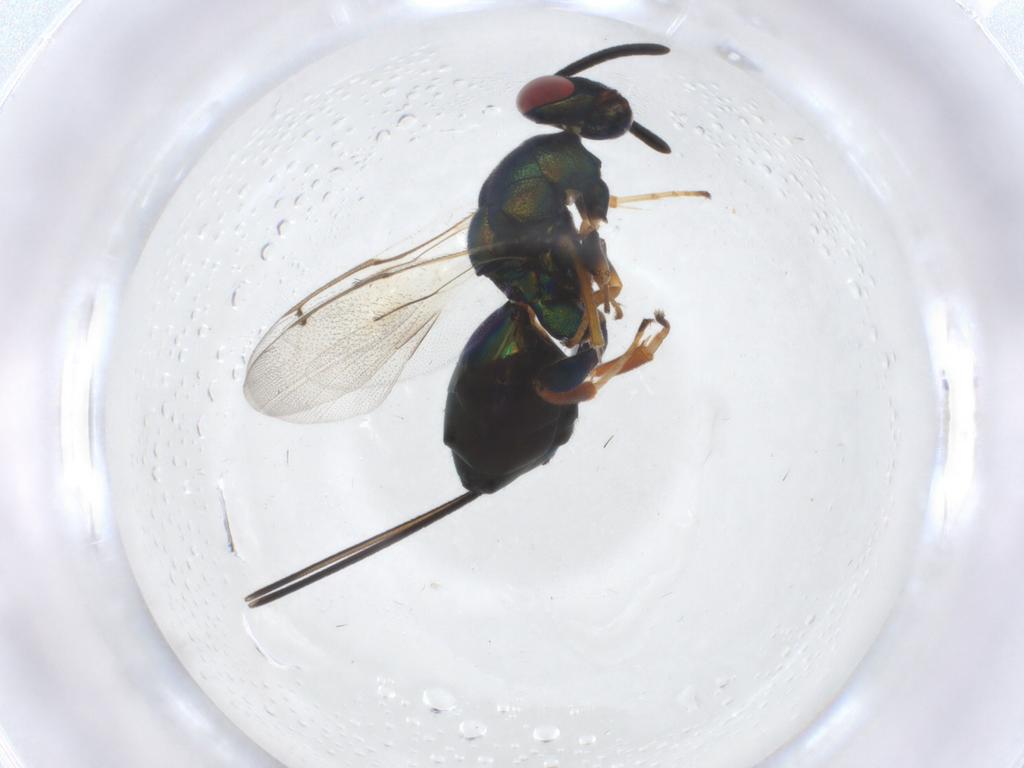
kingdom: Animalia
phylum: Arthropoda
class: Insecta
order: Hymenoptera
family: Torymidae
